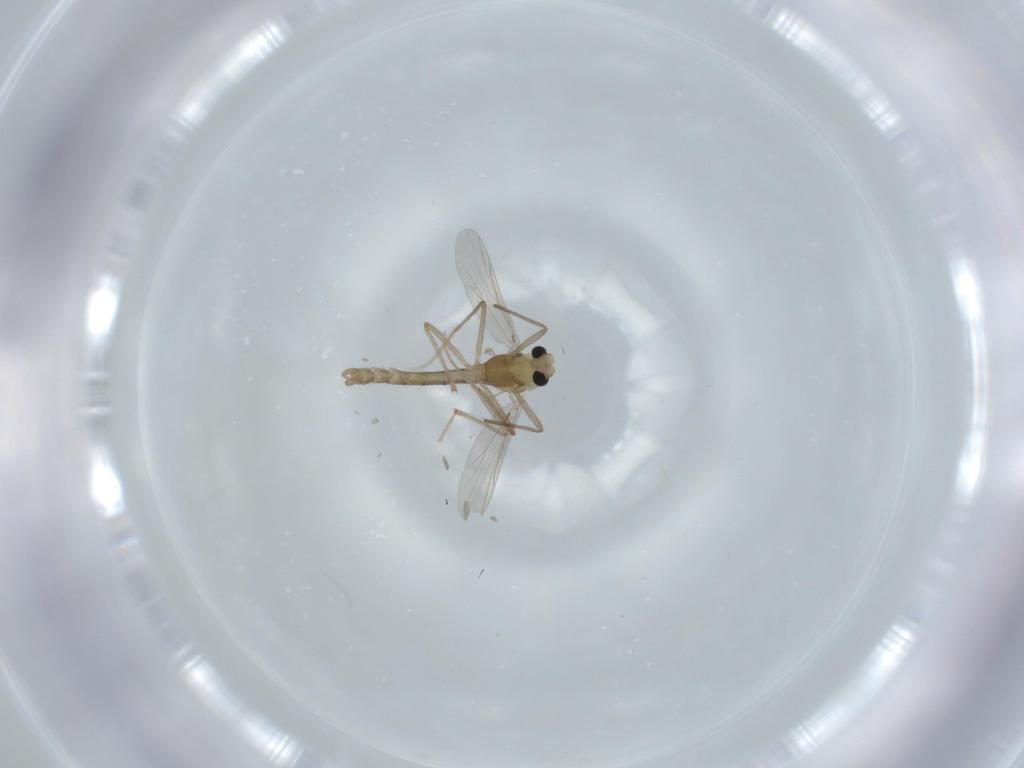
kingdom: Animalia
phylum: Arthropoda
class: Insecta
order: Diptera
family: Chironomidae
